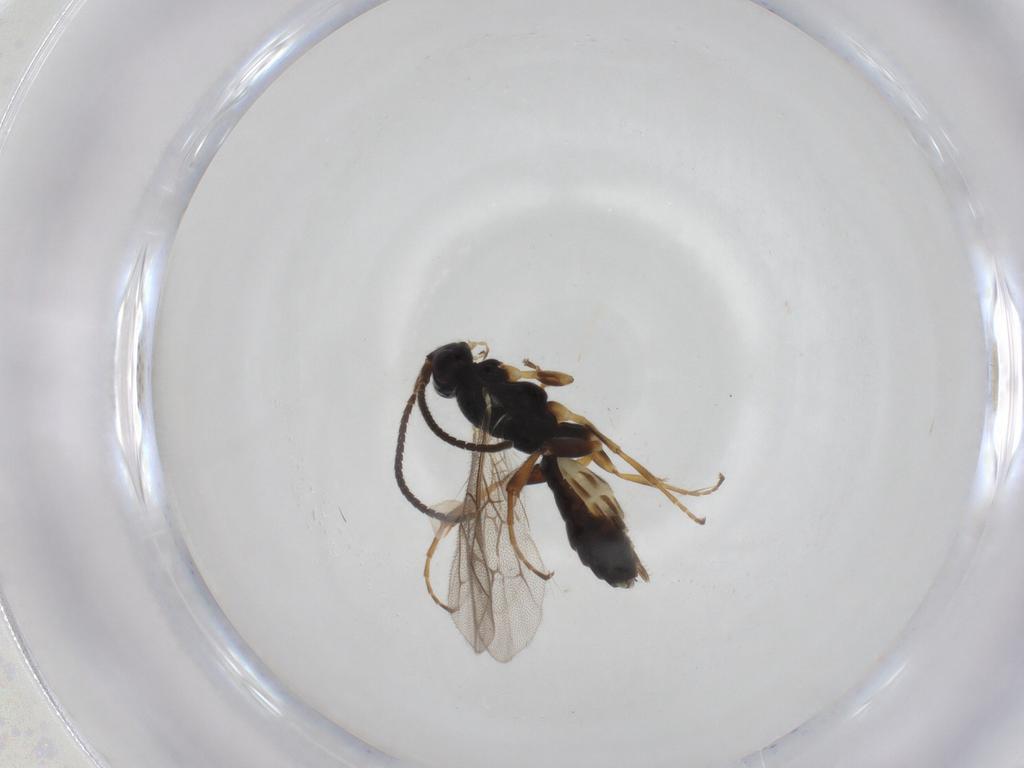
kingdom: Animalia
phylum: Arthropoda
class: Insecta
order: Hymenoptera
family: Ichneumonidae
